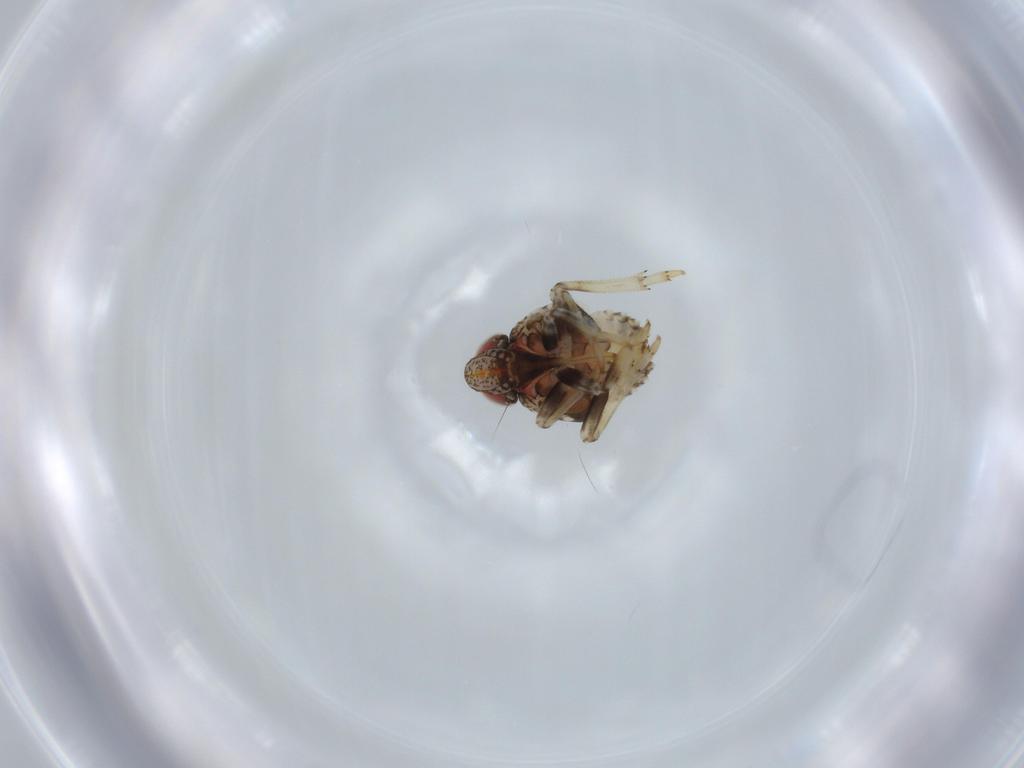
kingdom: Animalia
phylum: Arthropoda
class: Insecta
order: Hemiptera
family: Issidae
